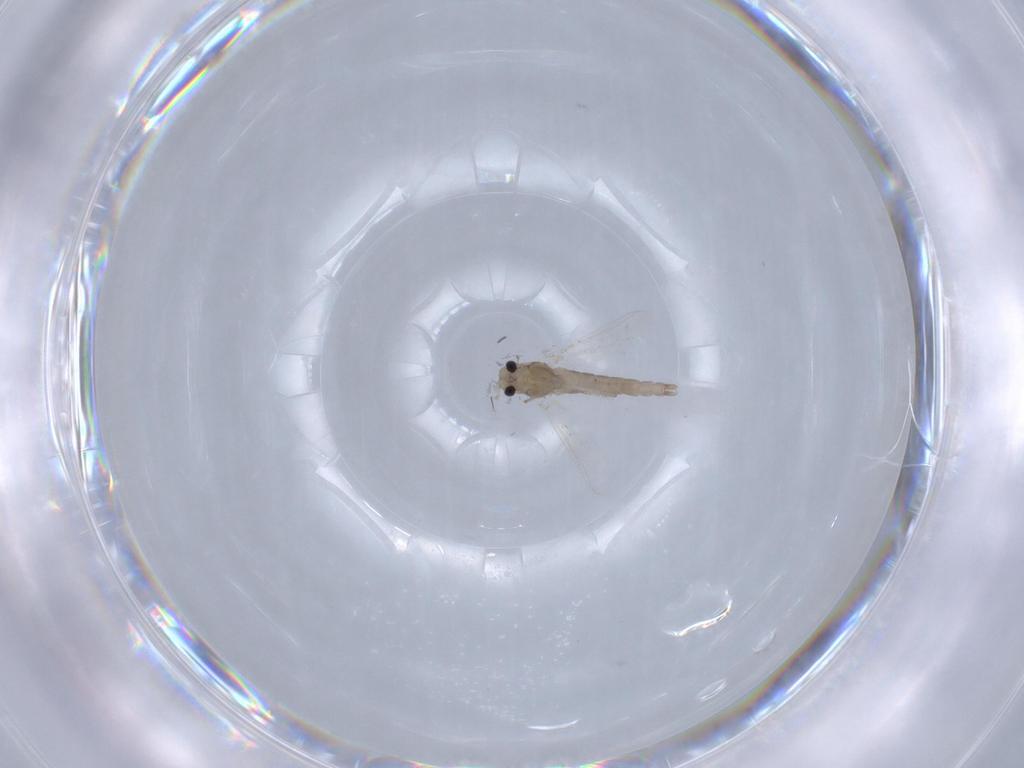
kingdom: Animalia
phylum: Arthropoda
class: Insecta
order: Diptera
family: Chironomidae
